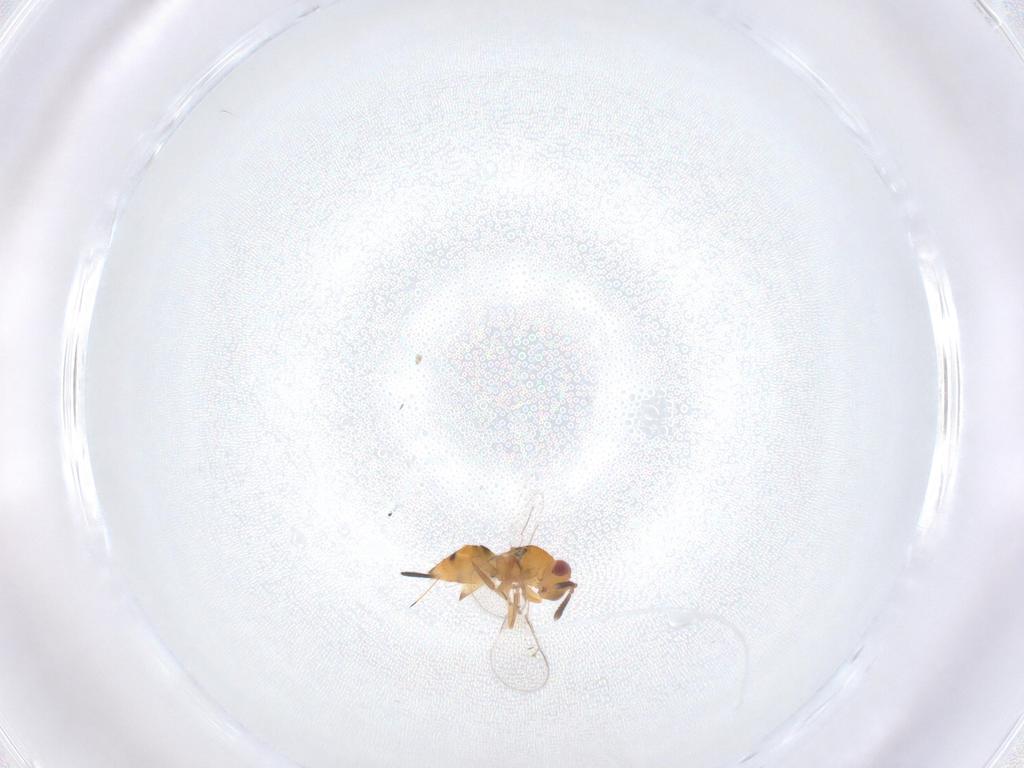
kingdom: Animalia
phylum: Arthropoda
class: Insecta
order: Hymenoptera
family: Torymidae
